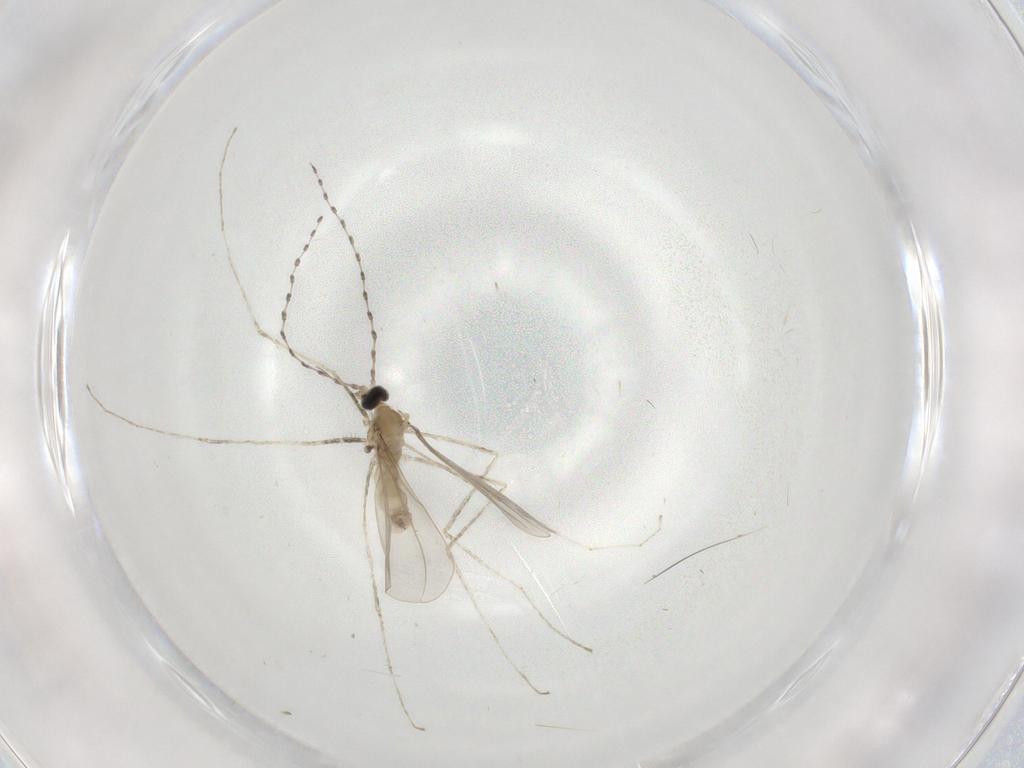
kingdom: Animalia
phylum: Arthropoda
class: Insecta
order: Diptera
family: Cecidomyiidae
